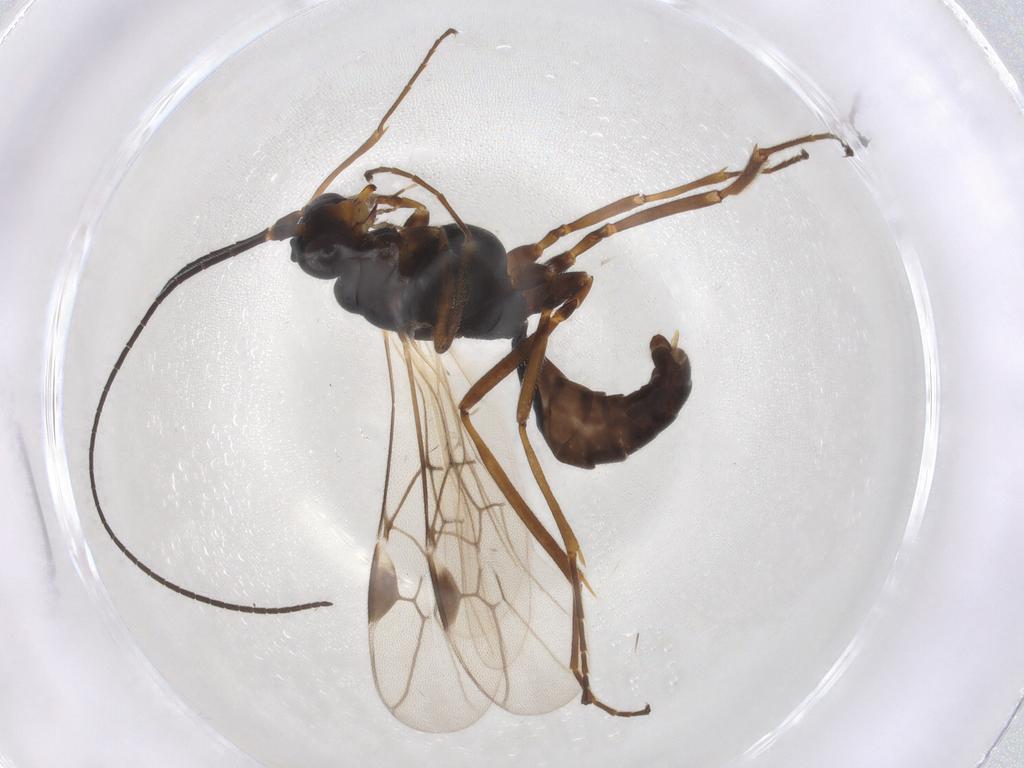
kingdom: Animalia
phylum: Arthropoda
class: Insecta
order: Hymenoptera
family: Braconidae
